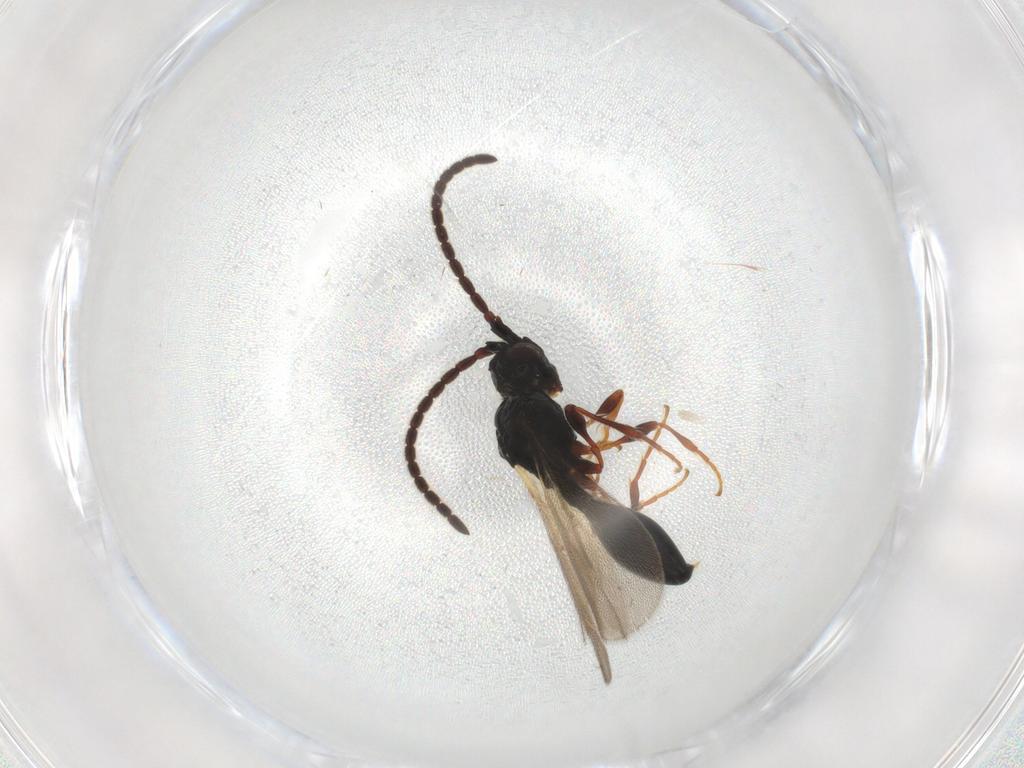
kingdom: Animalia
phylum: Arthropoda
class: Insecta
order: Hymenoptera
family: Diapriidae
